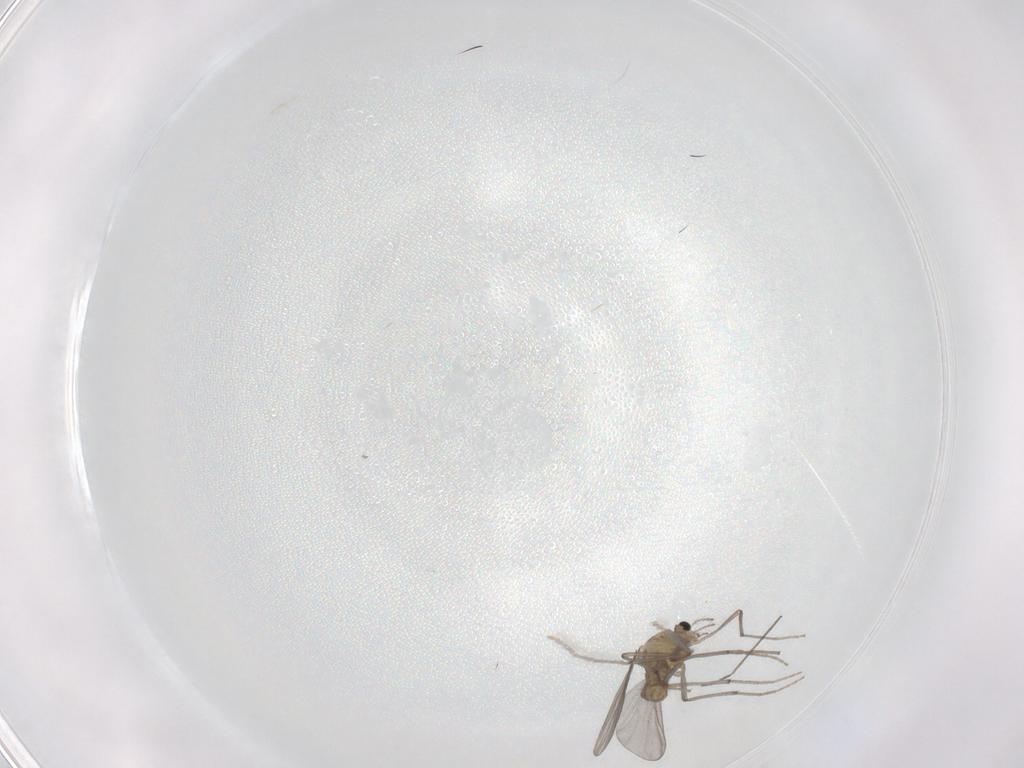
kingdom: Animalia
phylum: Arthropoda
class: Insecta
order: Diptera
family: Chironomidae
